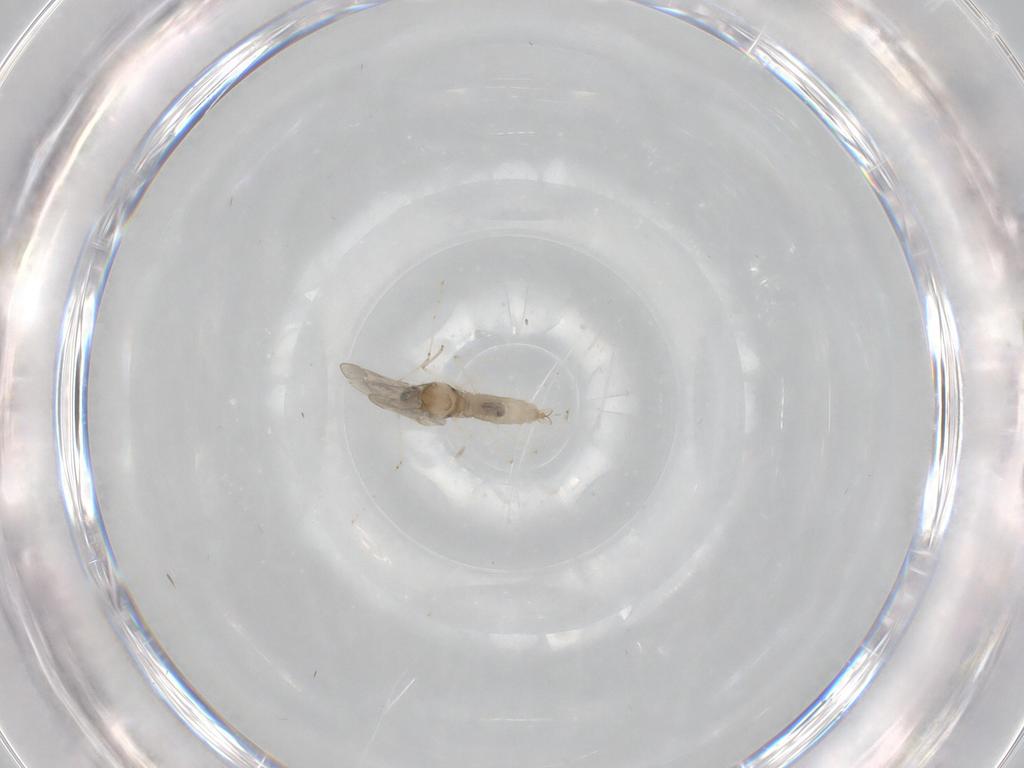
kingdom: Animalia
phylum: Arthropoda
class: Insecta
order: Diptera
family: Cecidomyiidae
